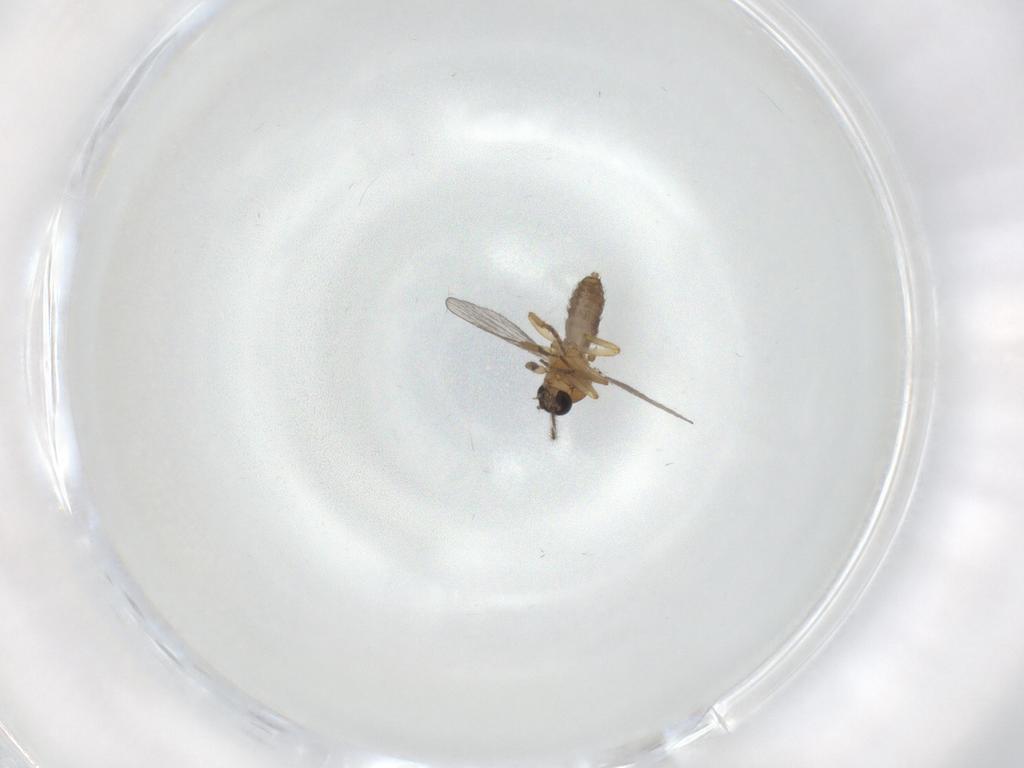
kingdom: Animalia
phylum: Arthropoda
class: Insecta
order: Diptera
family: Ceratopogonidae
